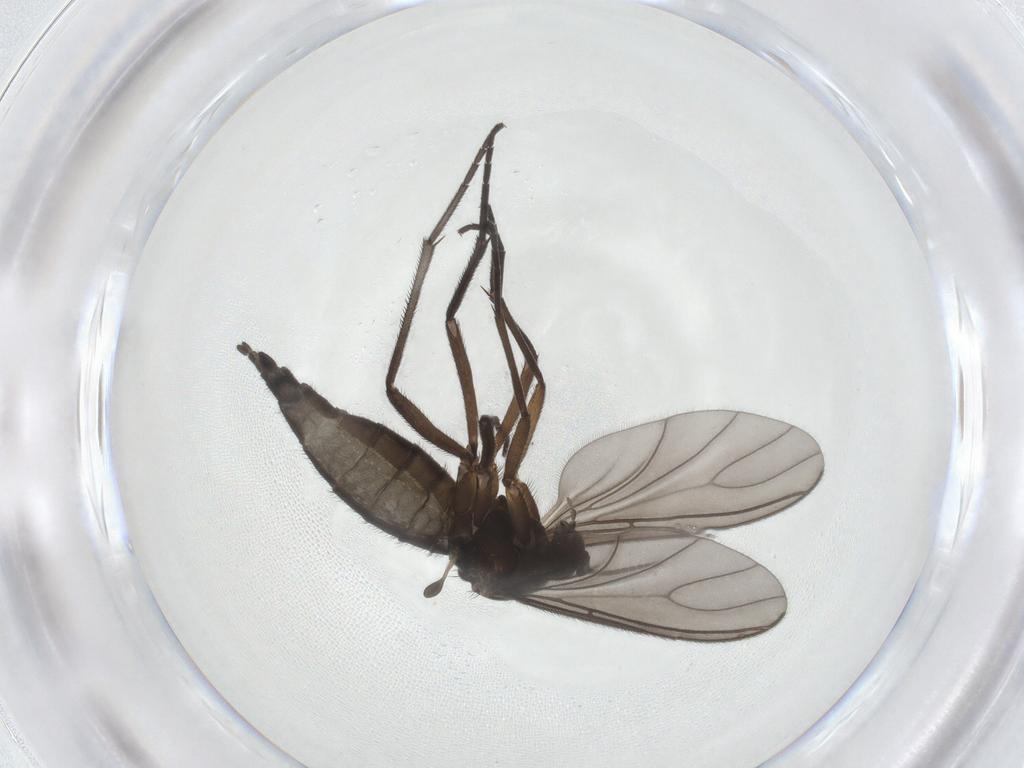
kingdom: Animalia
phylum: Arthropoda
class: Insecta
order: Diptera
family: Sciaridae
